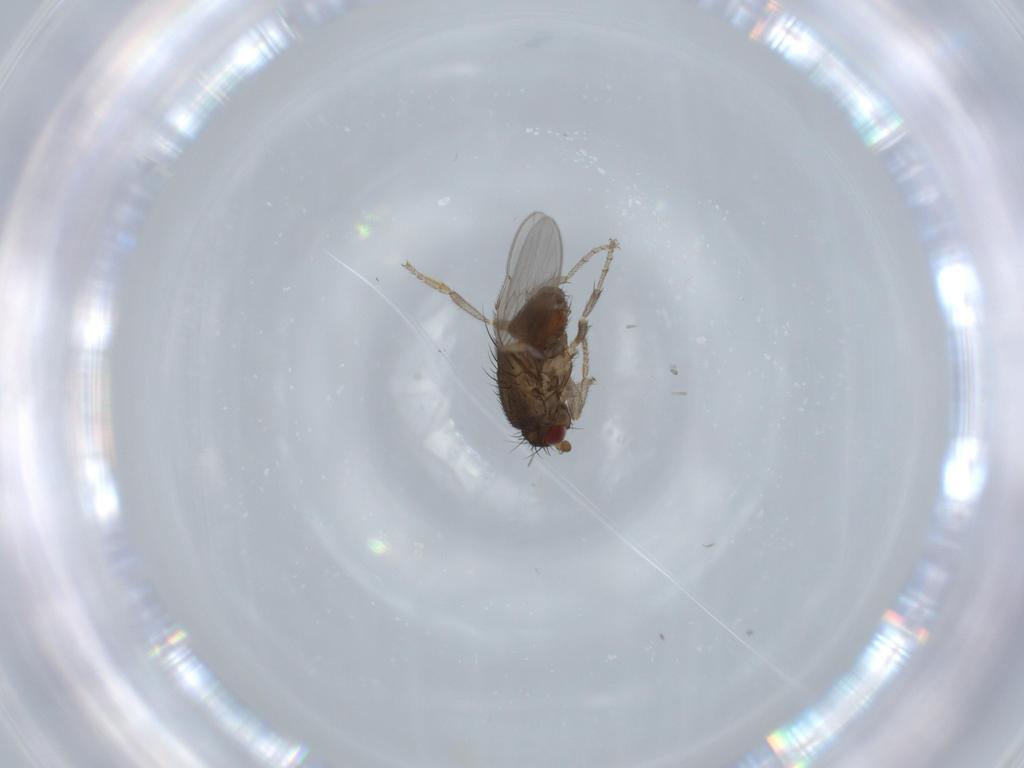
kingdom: Animalia
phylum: Arthropoda
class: Insecta
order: Diptera
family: Sphaeroceridae
